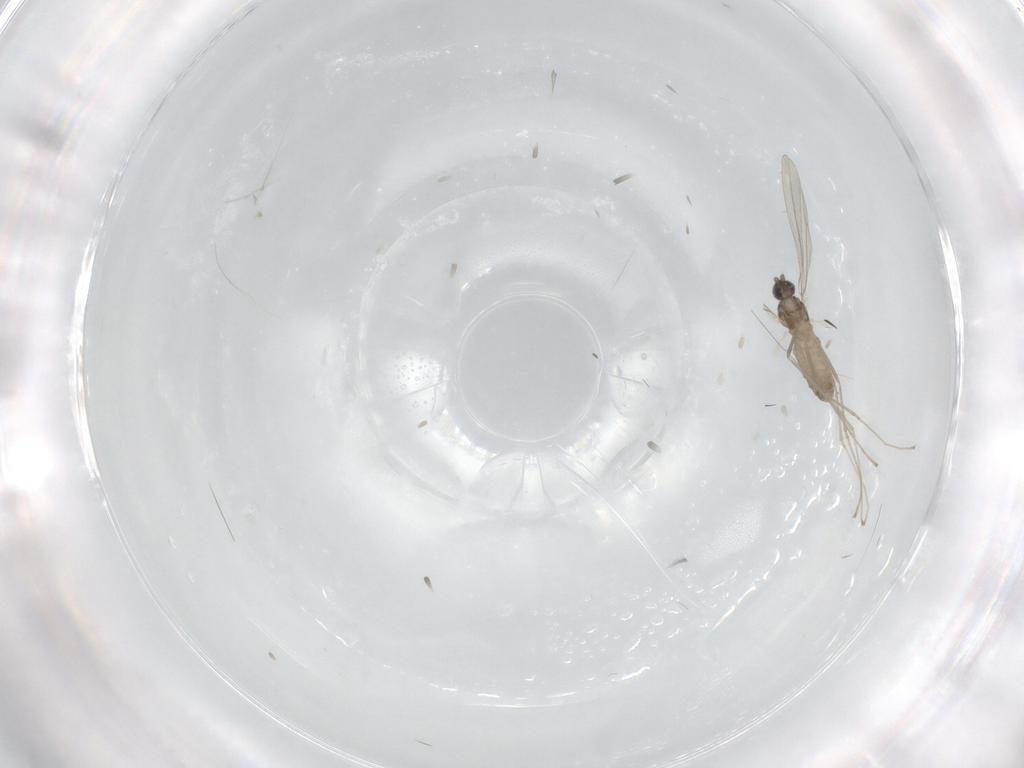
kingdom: Animalia
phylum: Arthropoda
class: Insecta
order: Diptera
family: Cecidomyiidae
